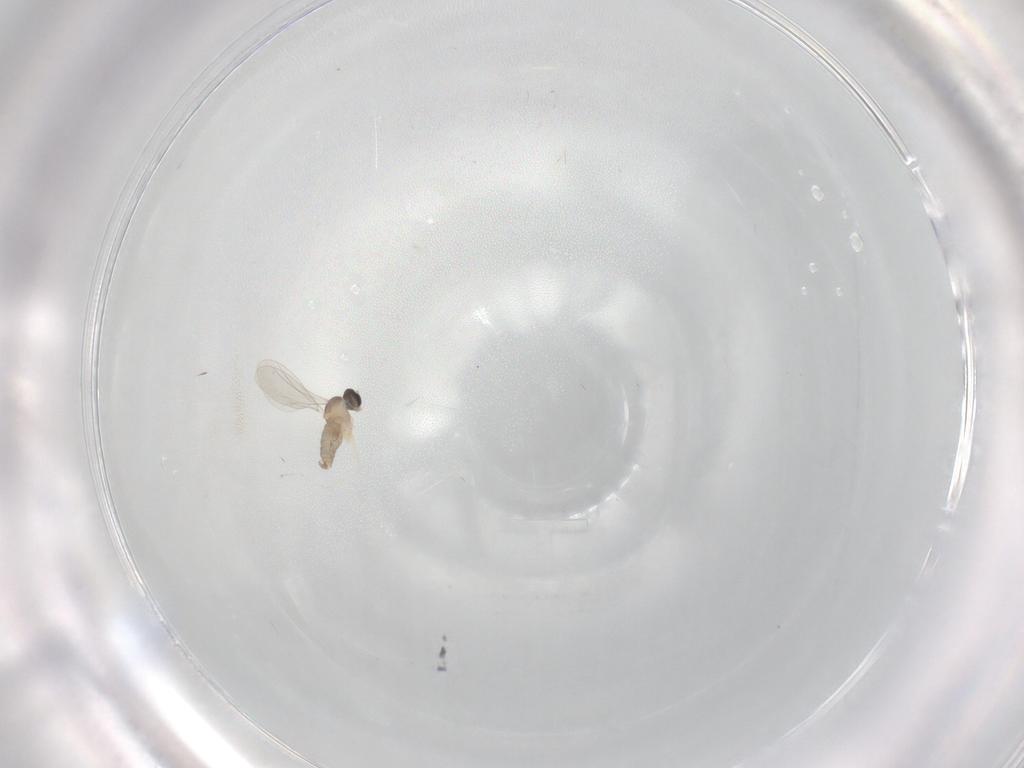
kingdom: Animalia
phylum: Arthropoda
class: Insecta
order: Diptera
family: Cecidomyiidae
